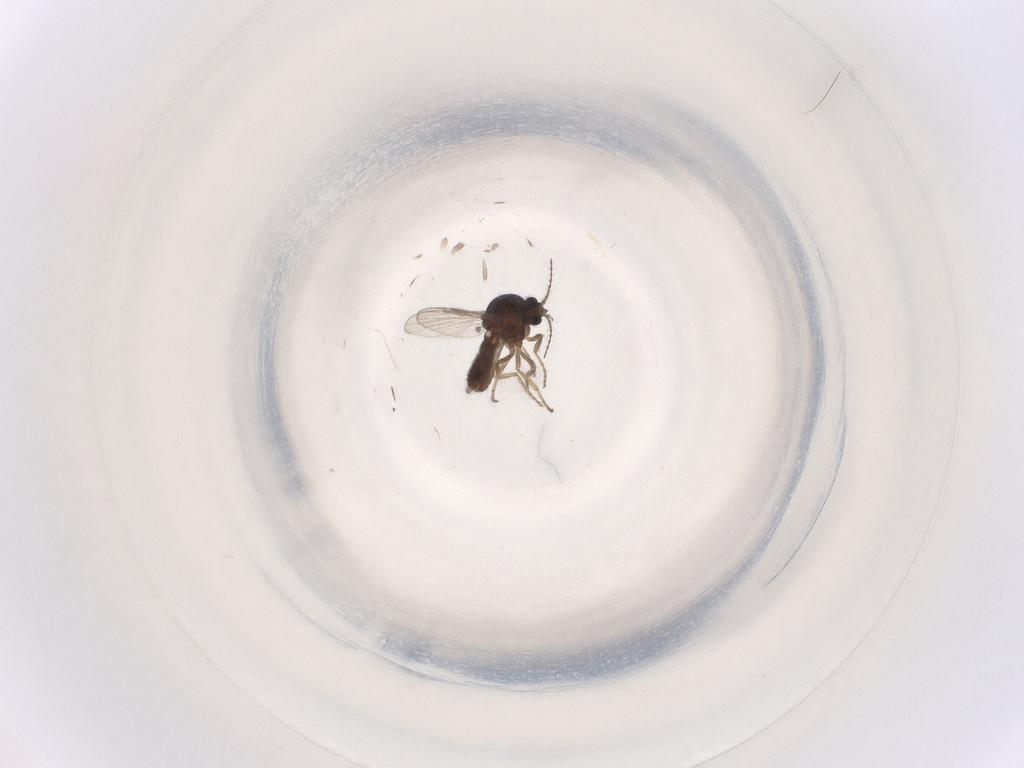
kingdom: Animalia
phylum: Arthropoda
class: Insecta
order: Diptera
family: Ceratopogonidae
